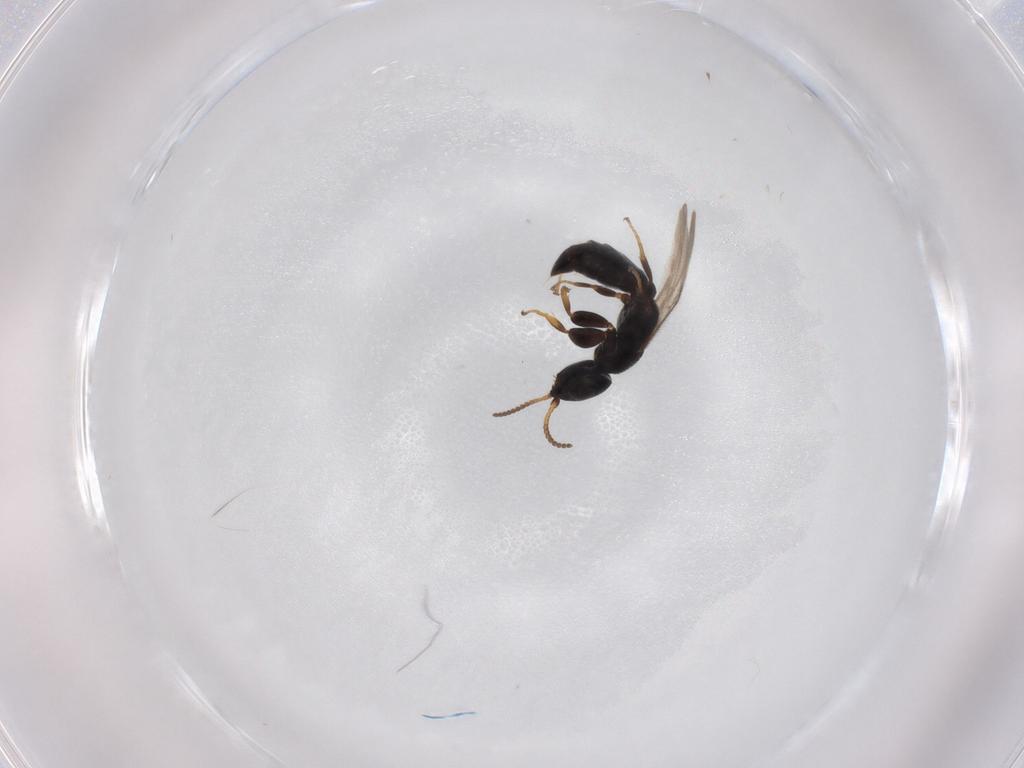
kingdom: Animalia
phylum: Arthropoda
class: Insecta
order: Hymenoptera
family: Bethylidae
